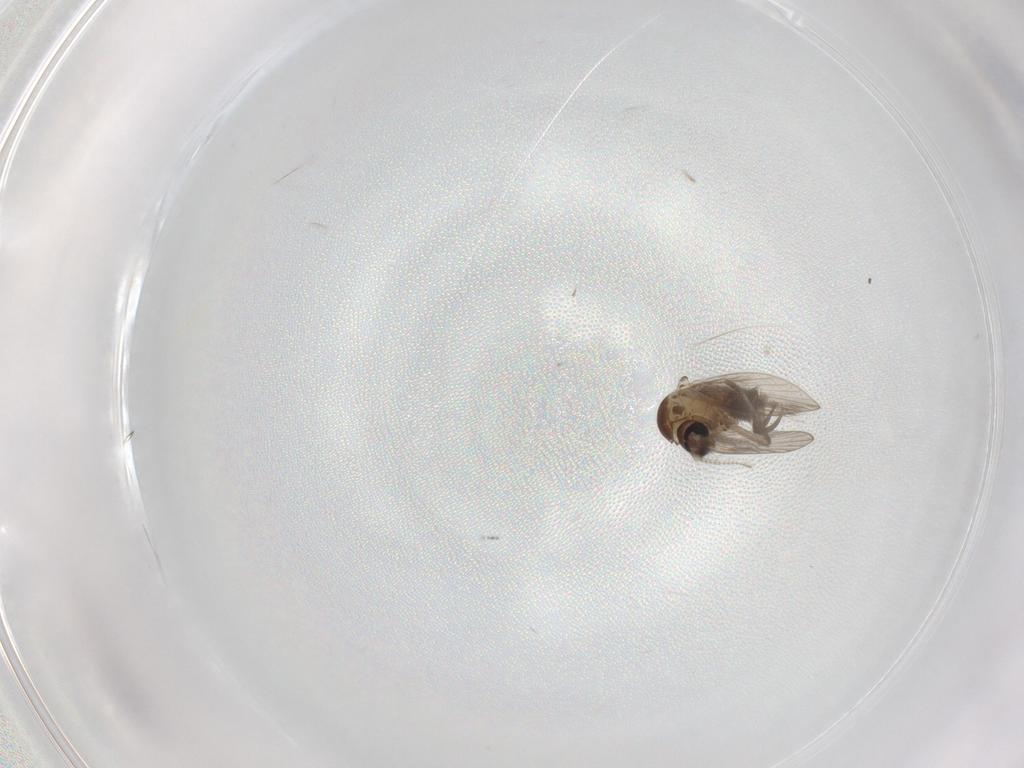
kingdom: Animalia
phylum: Arthropoda
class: Insecta
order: Diptera
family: Psychodidae
